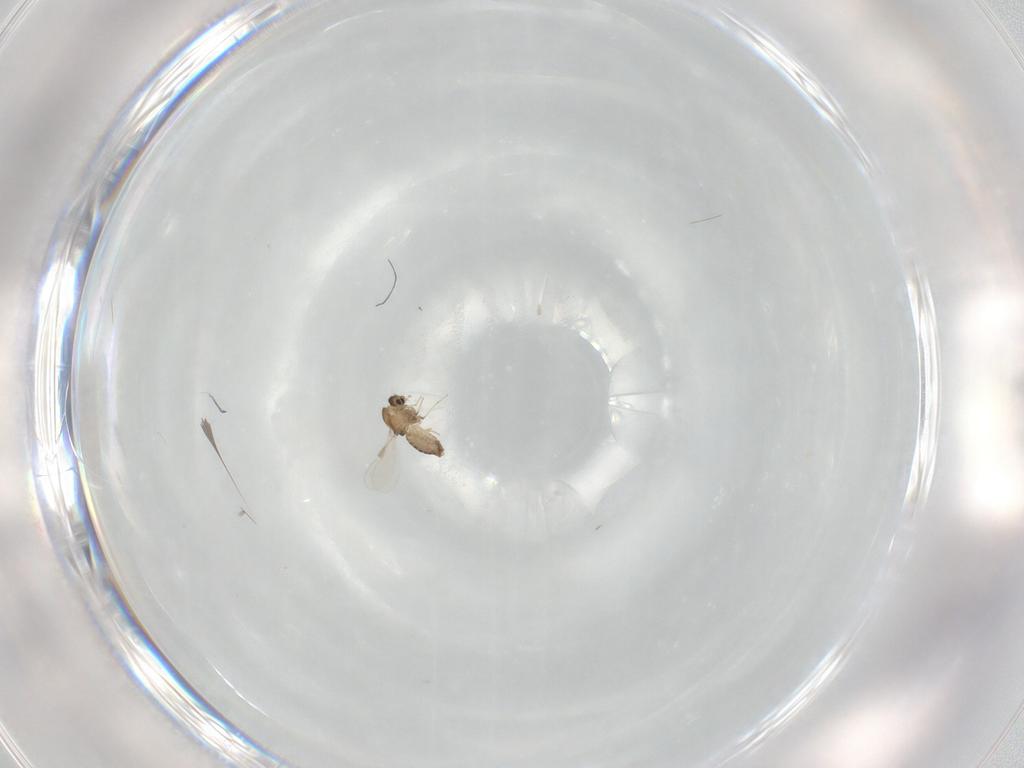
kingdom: Animalia
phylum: Arthropoda
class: Insecta
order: Diptera
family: Chironomidae
